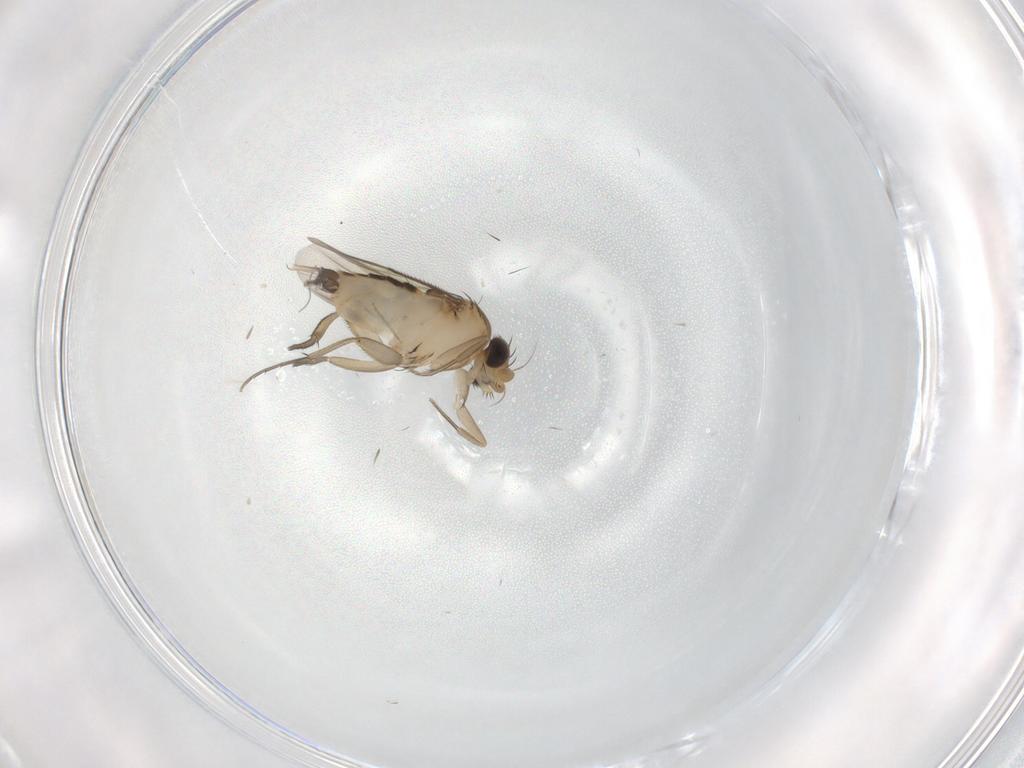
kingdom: Animalia
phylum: Arthropoda
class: Insecta
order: Diptera
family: Phoridae
